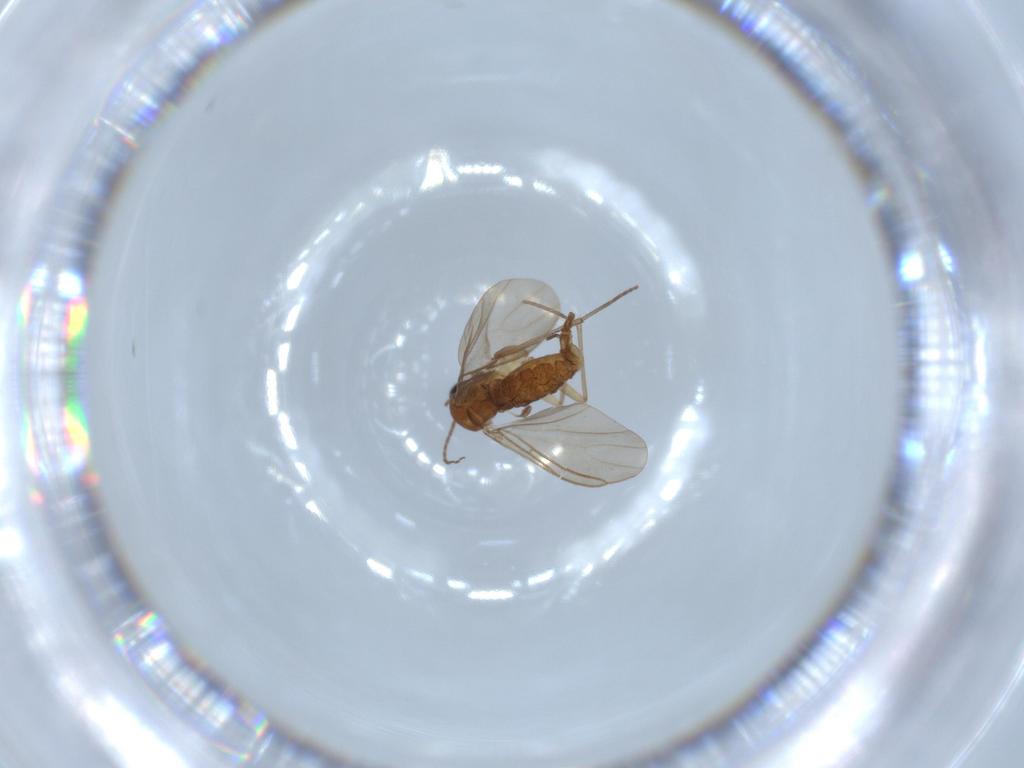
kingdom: Animalia
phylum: Arthropoda
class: Insecta
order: Diptera
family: Sciaridae
